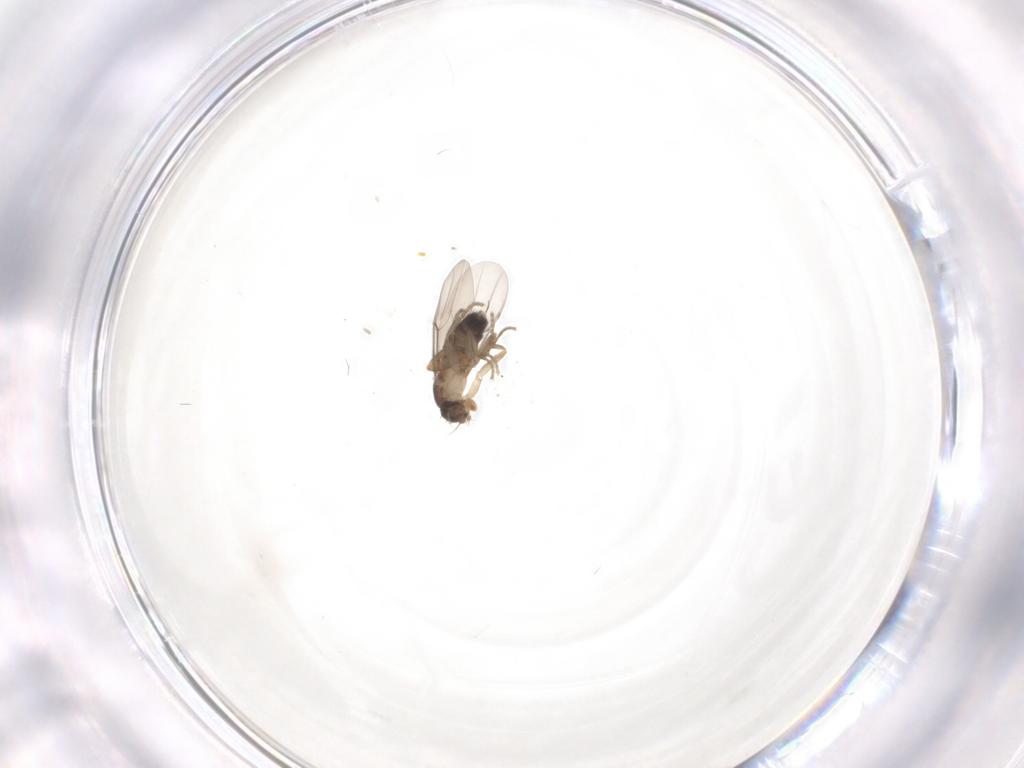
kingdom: Animalia
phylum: Arthropoda
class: Insecta
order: Diptera
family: Phoridae
